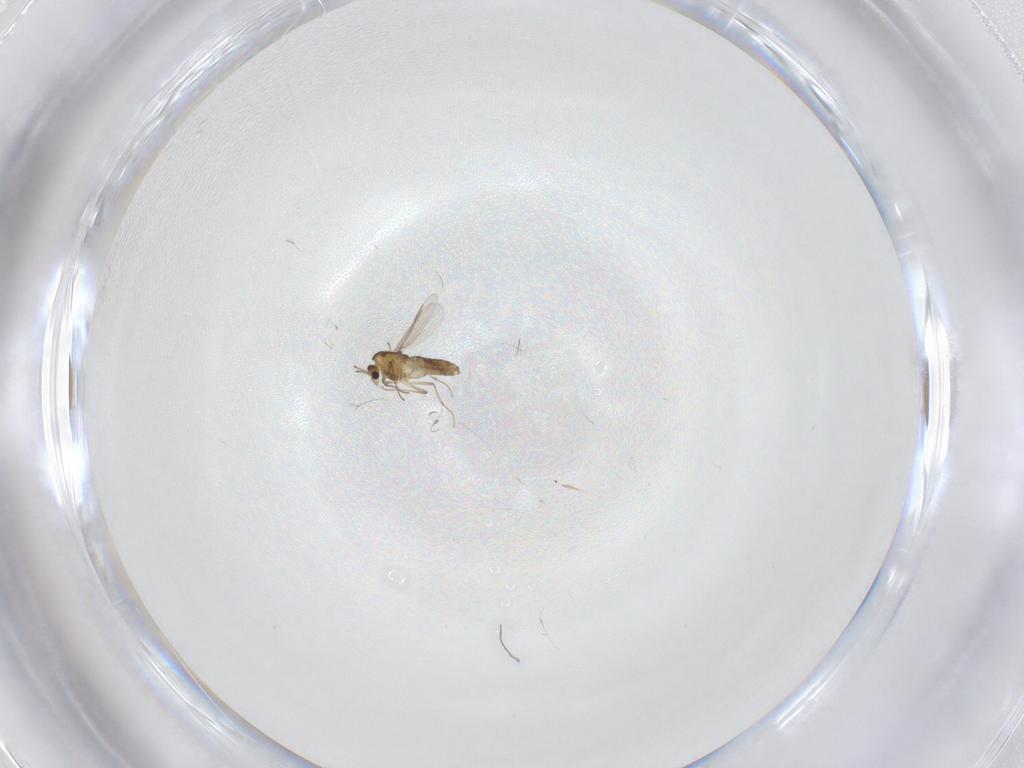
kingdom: Animalia
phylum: Arthropoda
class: Insecta
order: Diptera
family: Chironomidae
